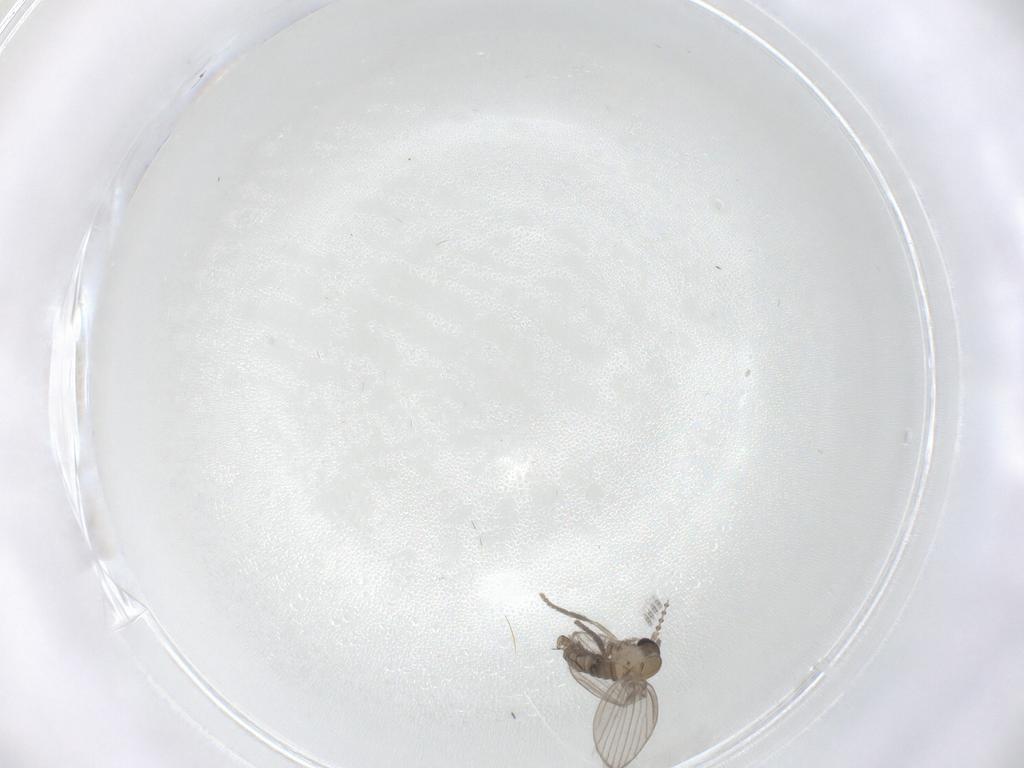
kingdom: Animalia
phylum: Arthropoda
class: Insecta
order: Diptera
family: Psychodidae
